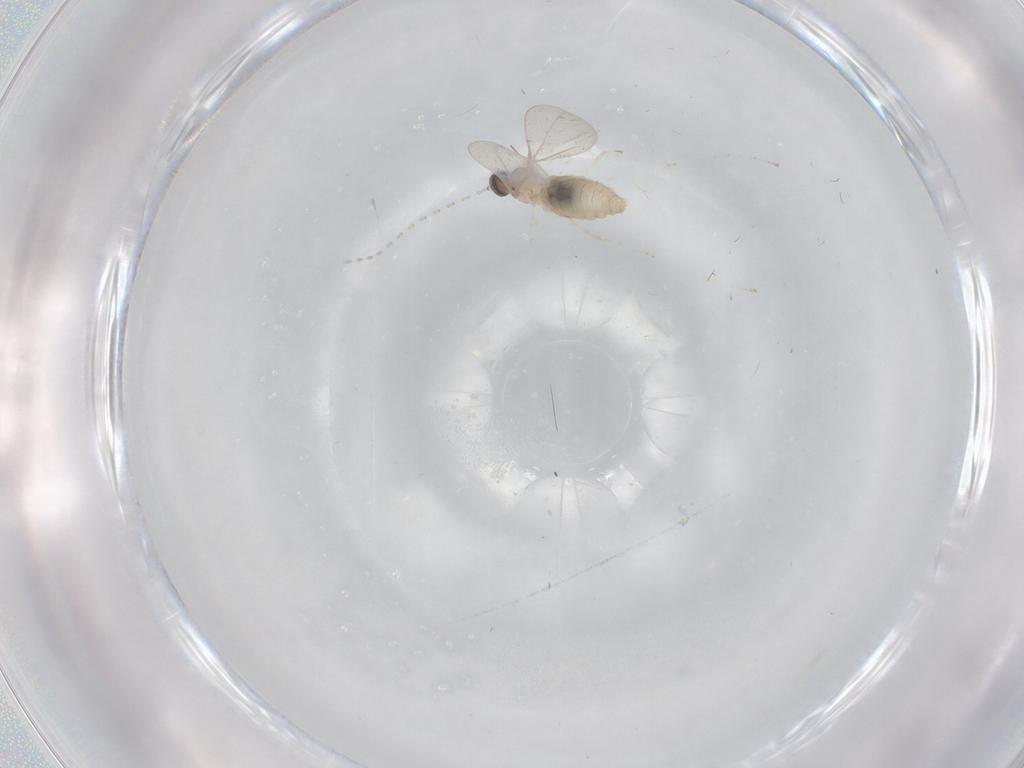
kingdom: Animalia
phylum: Arthropoda
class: Insecta
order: Diptera
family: Cecidomyiidae
